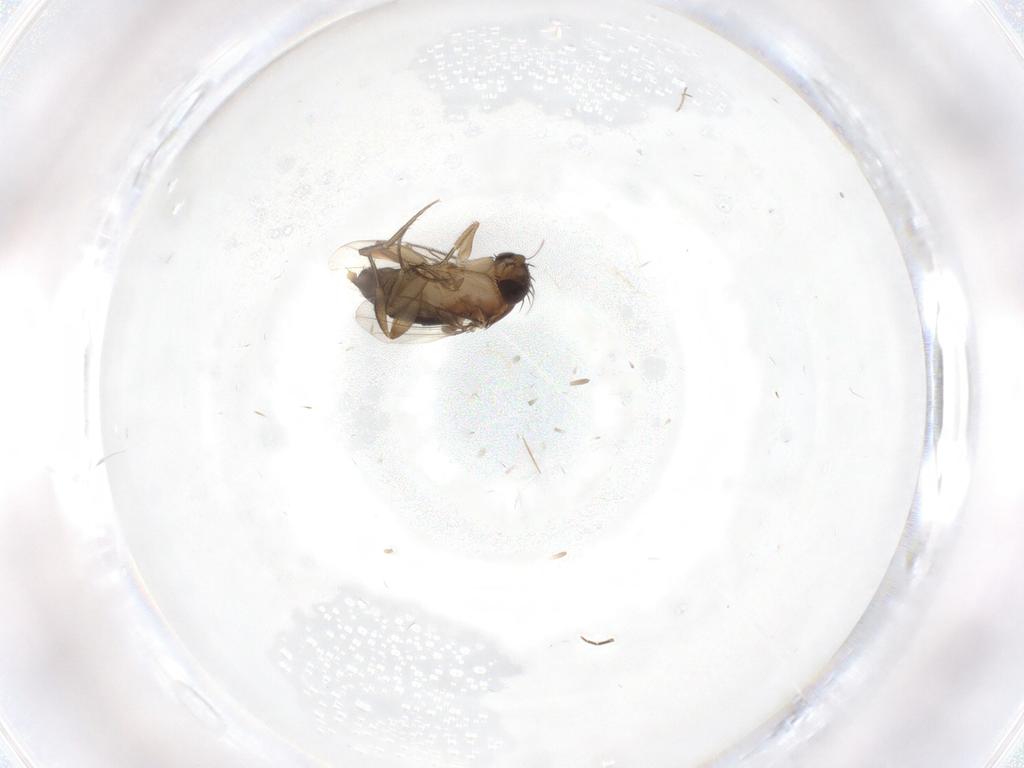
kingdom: Animalia
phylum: Arthropoda
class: Insecta
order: Diptera
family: Phoridae
